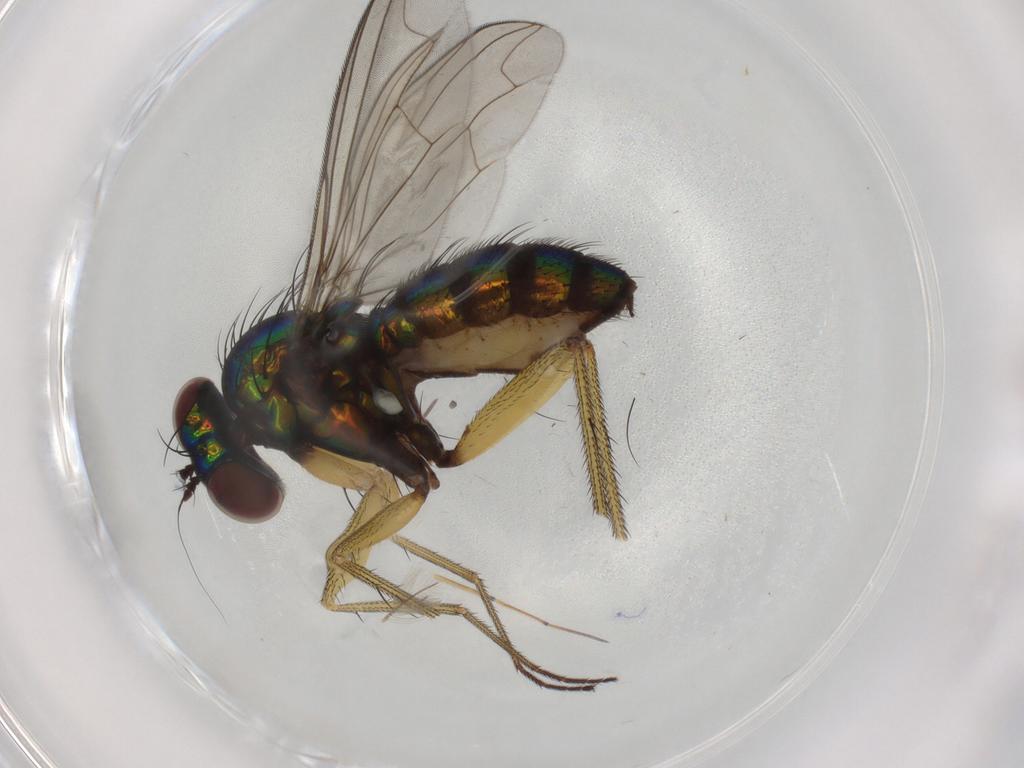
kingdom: Animalia
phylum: Arthropoda
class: Insecta
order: Diptera
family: Dolichopodidae
